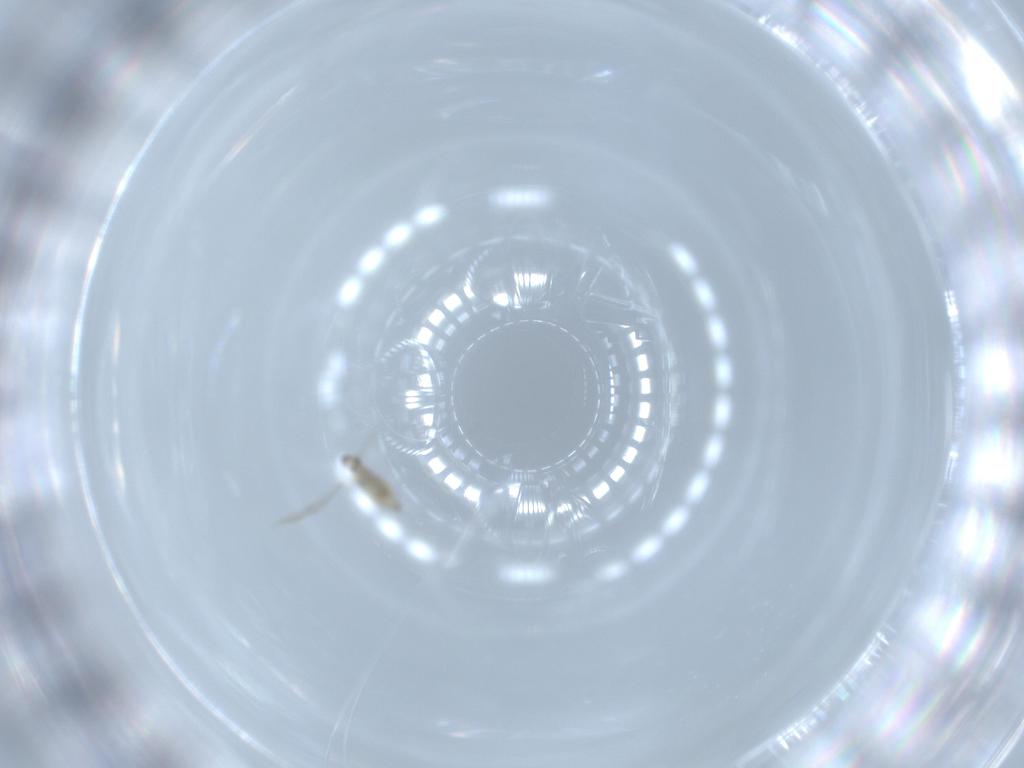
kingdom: Animalia
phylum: Arthropoda
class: Insecta
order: Diptera
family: Cecidomyiidae
